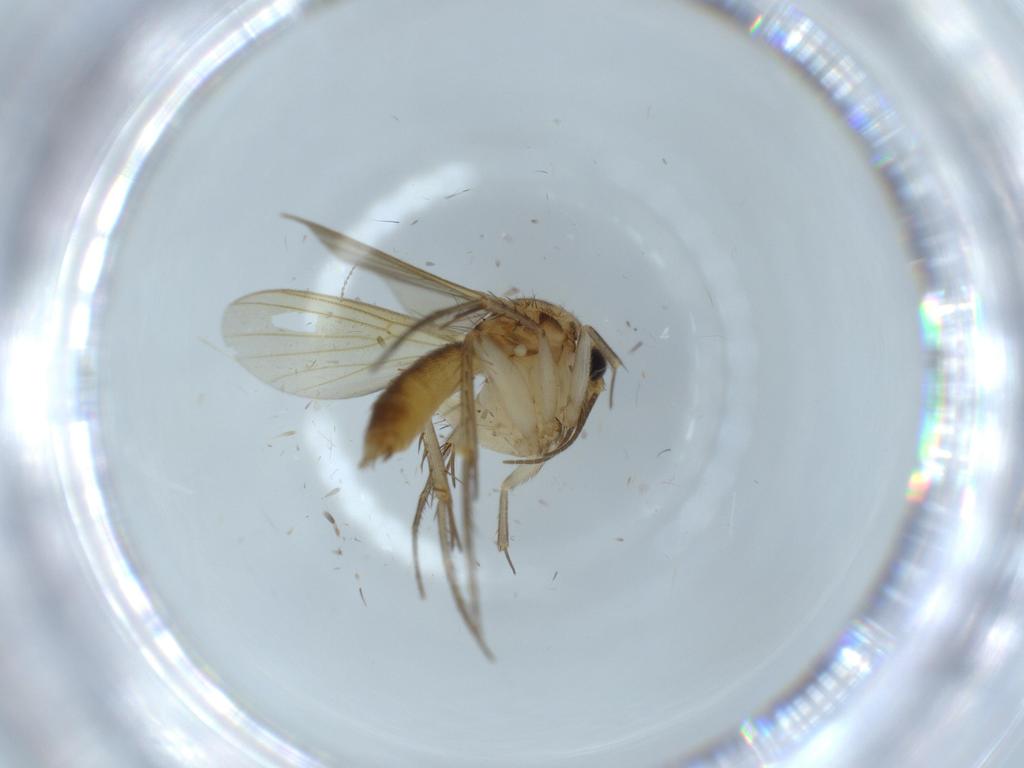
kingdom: Animalia
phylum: Arthropoda
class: Insecta
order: Diptera
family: Mycetophilidae
